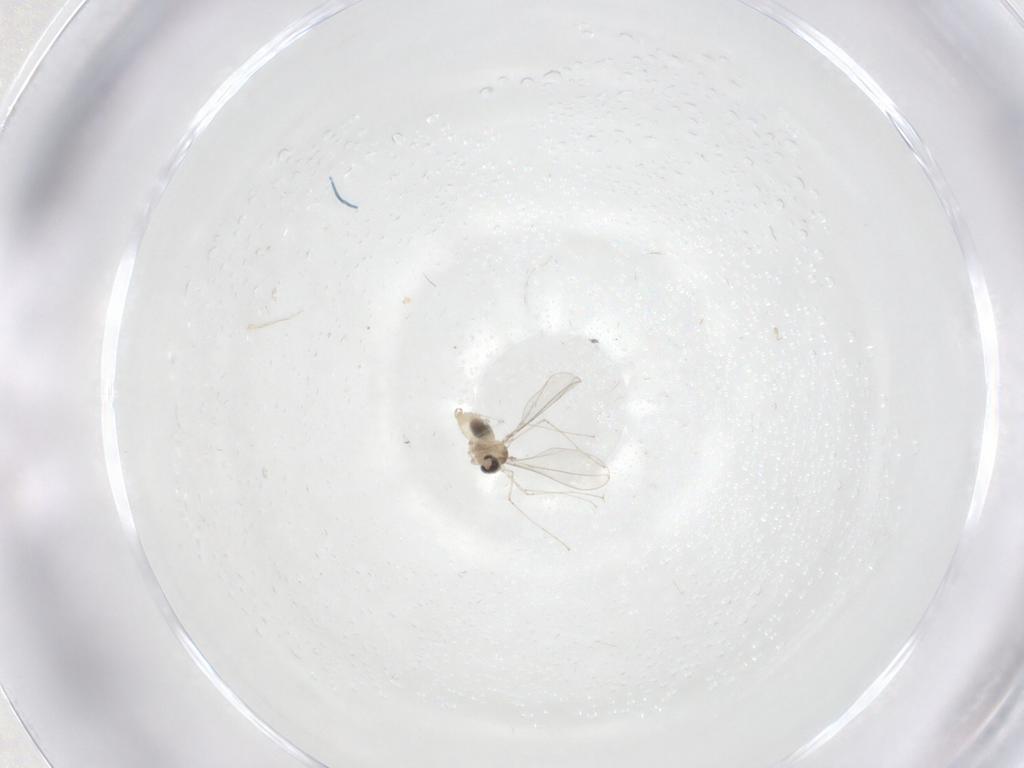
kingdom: Animalia
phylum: Arthropoda
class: Insecta
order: Diptera
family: Cecidomyiidae
